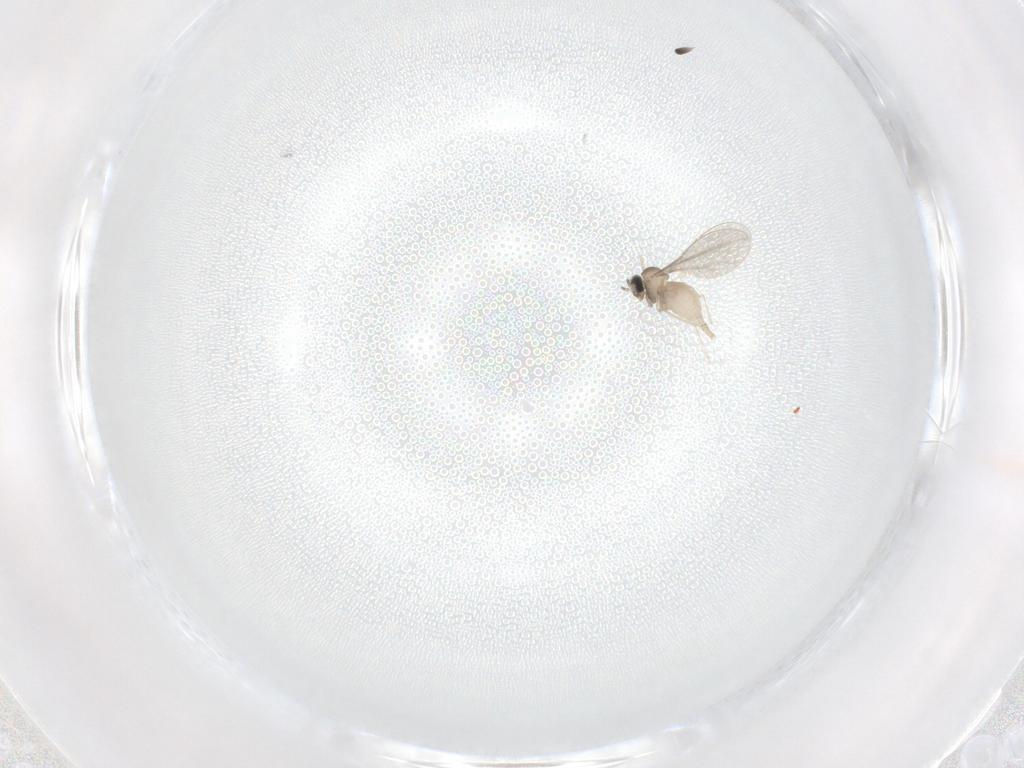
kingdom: Animalia
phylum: Arthropoda
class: Insecta
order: Diptera
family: Cecidomyiidae
